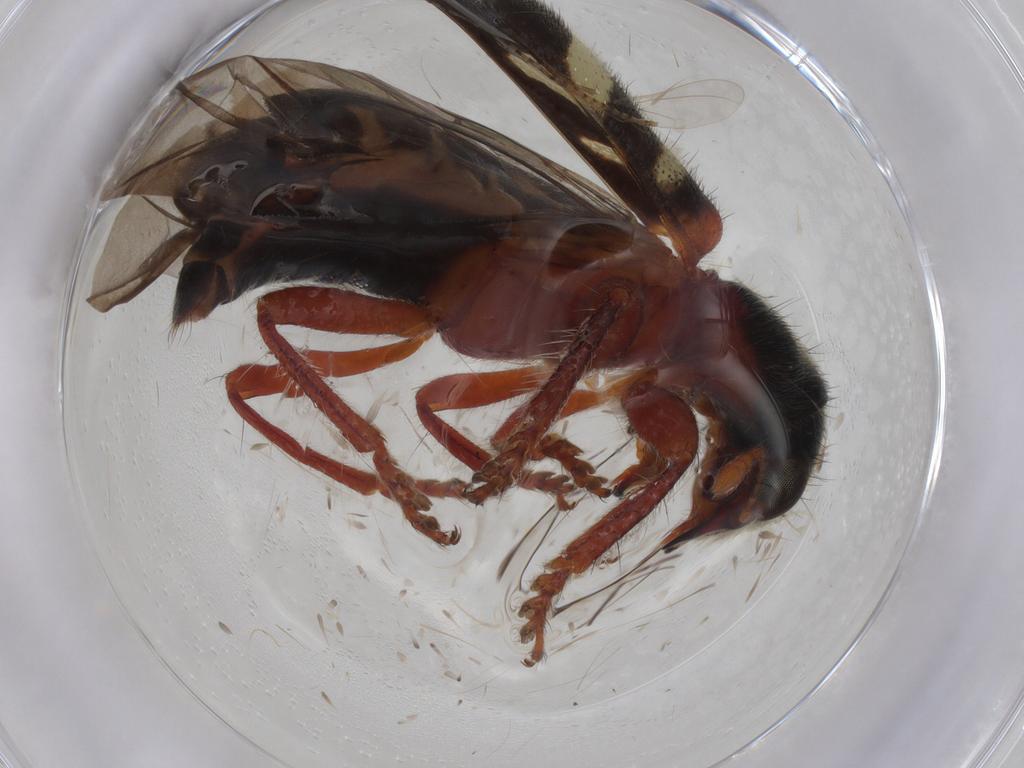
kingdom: Animalia
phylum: Arthropoda
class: Insecta
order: Coleoptera
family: Cleridae
